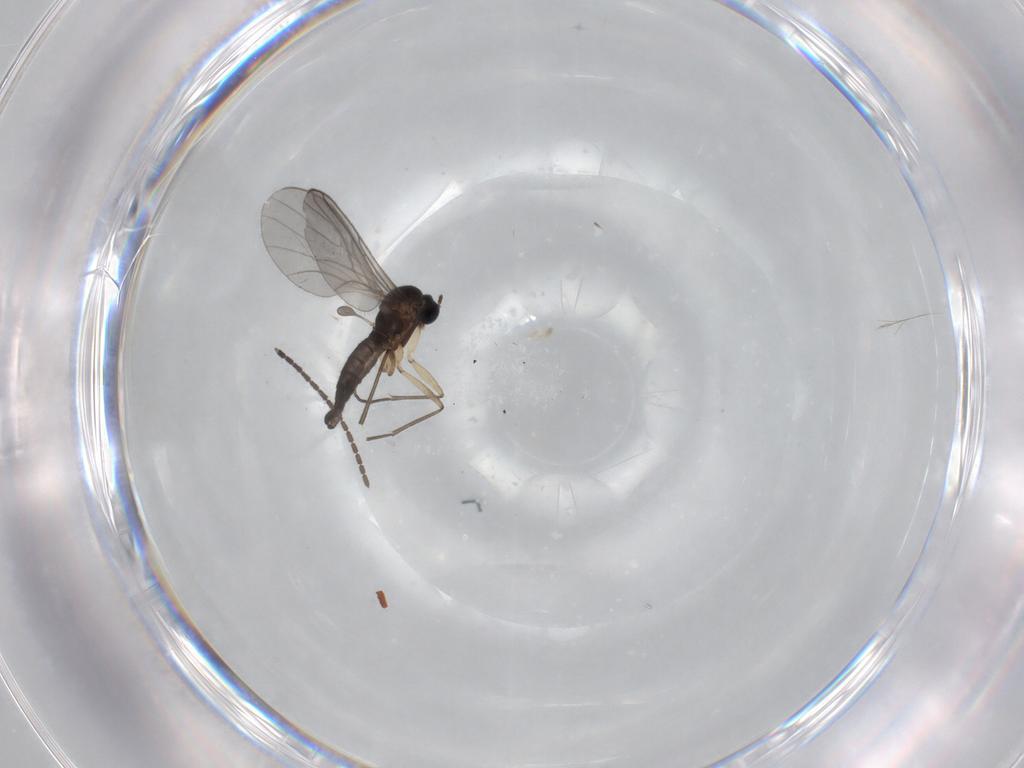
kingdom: Animalia
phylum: Arthropoda
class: Insecta
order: Diptera
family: Sciaridae
